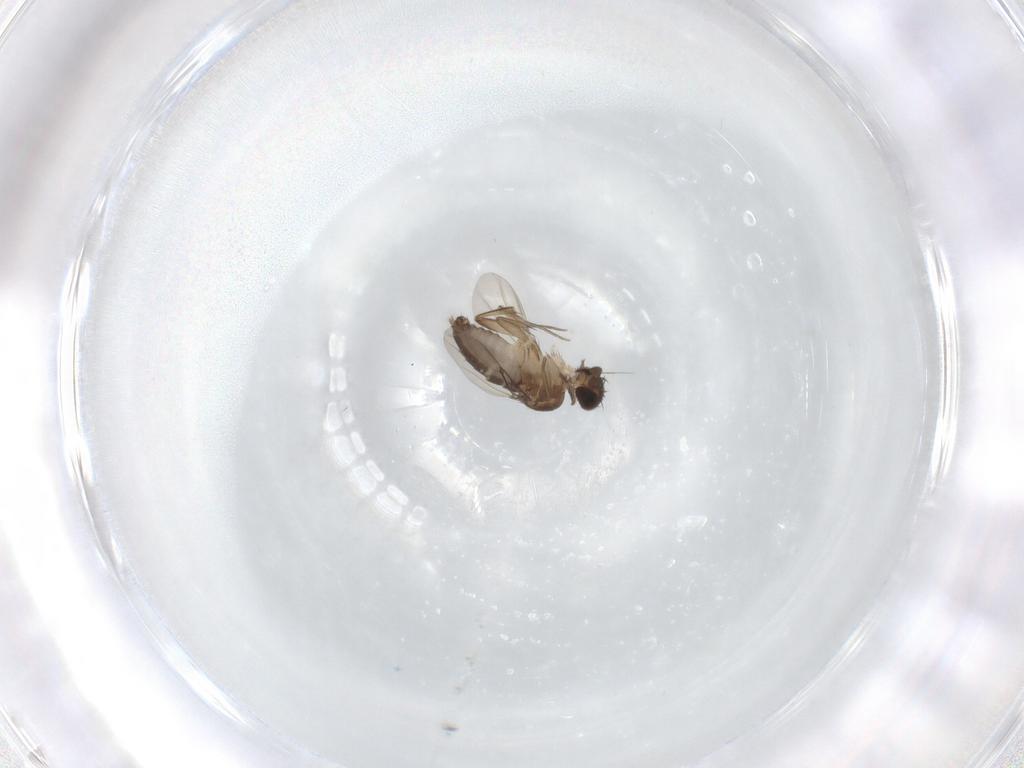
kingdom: Animalia
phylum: Arthropoda
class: Insecta
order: Diptera
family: Phoridae
